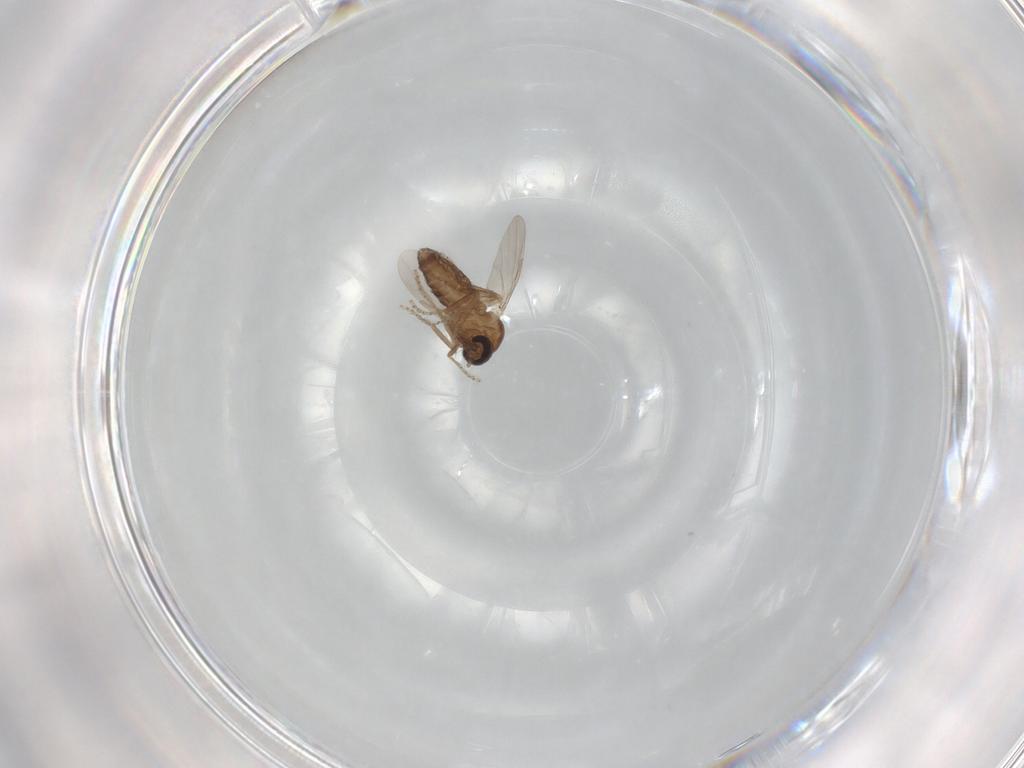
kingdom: Animalia
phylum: Arthropoda
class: Insecta
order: Diptera
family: Ceratopogonidae
